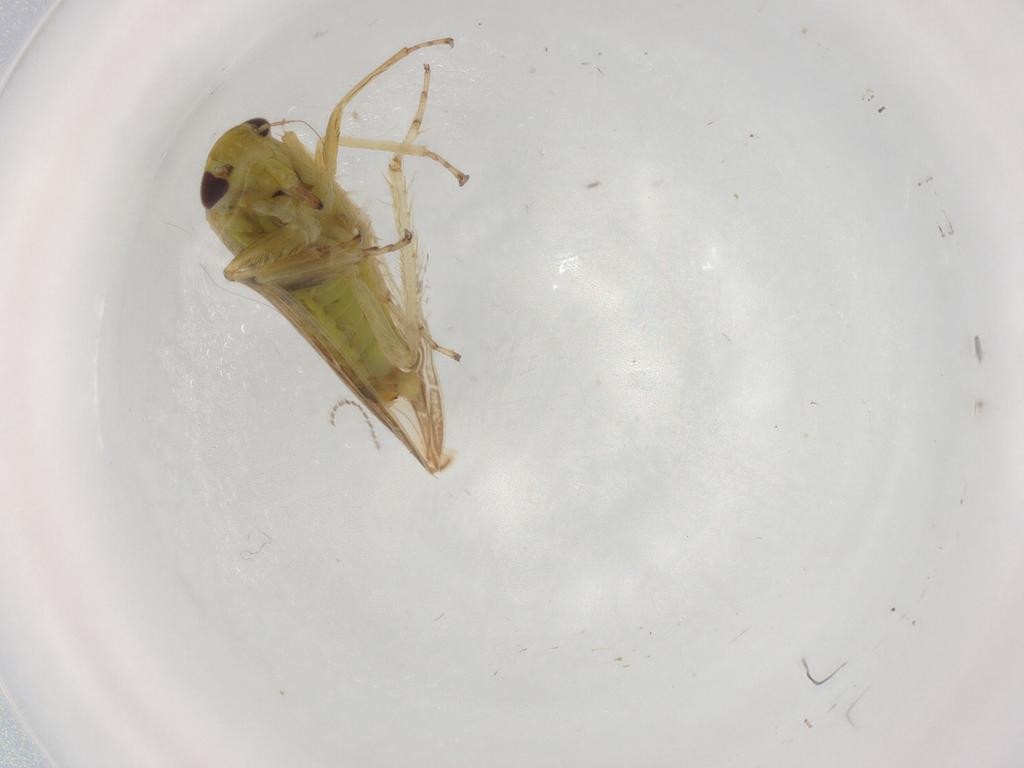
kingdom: Animalia
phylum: Arthropoda
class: Insecta
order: Hemiptera
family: Cicadellidae
